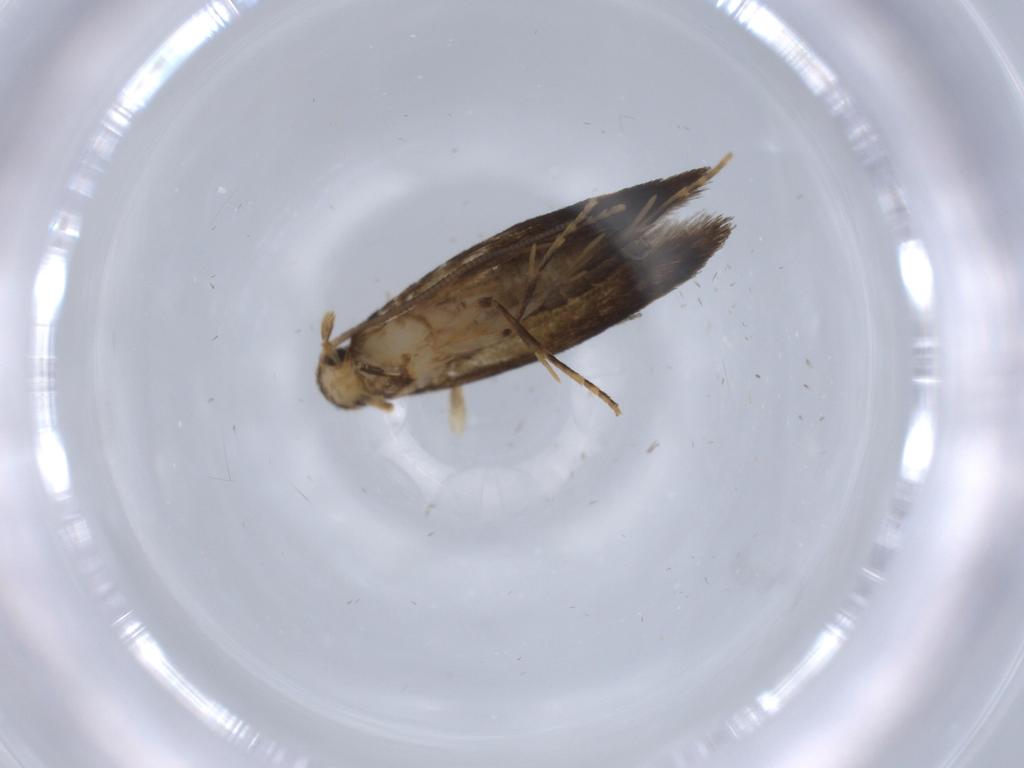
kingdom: Animalia
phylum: Arthropoda
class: Insecta
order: Lepidoptera
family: Tineidae
